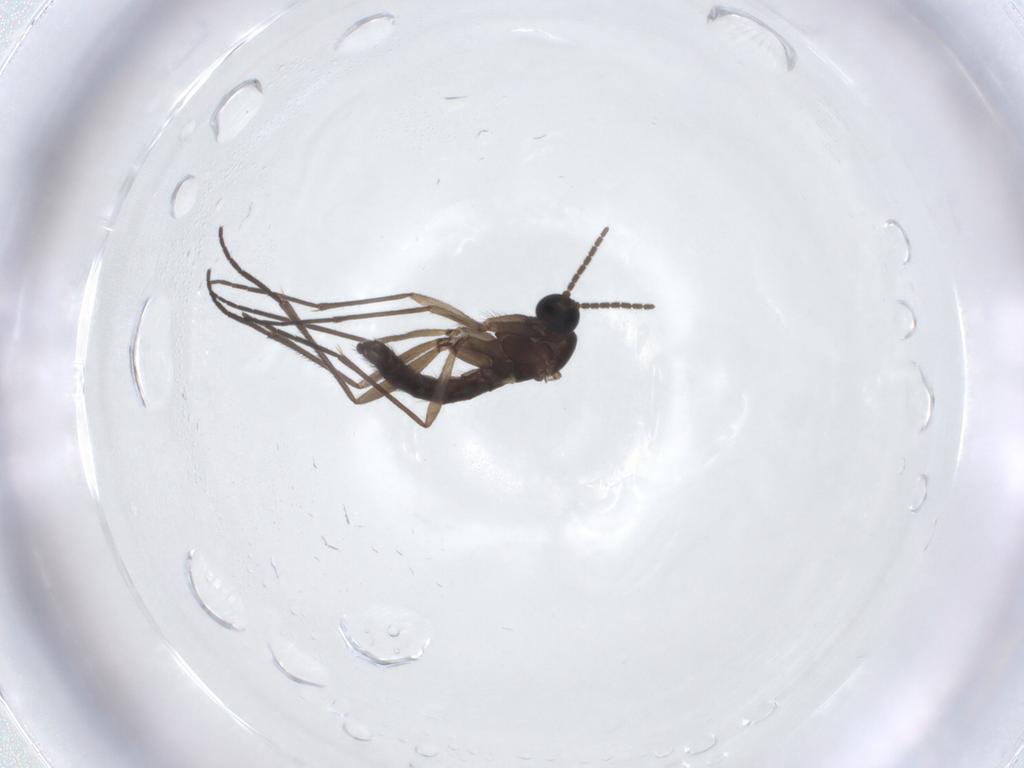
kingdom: Animalia
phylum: Arthropoda
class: Insecta
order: Diptera
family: Sciaridae
